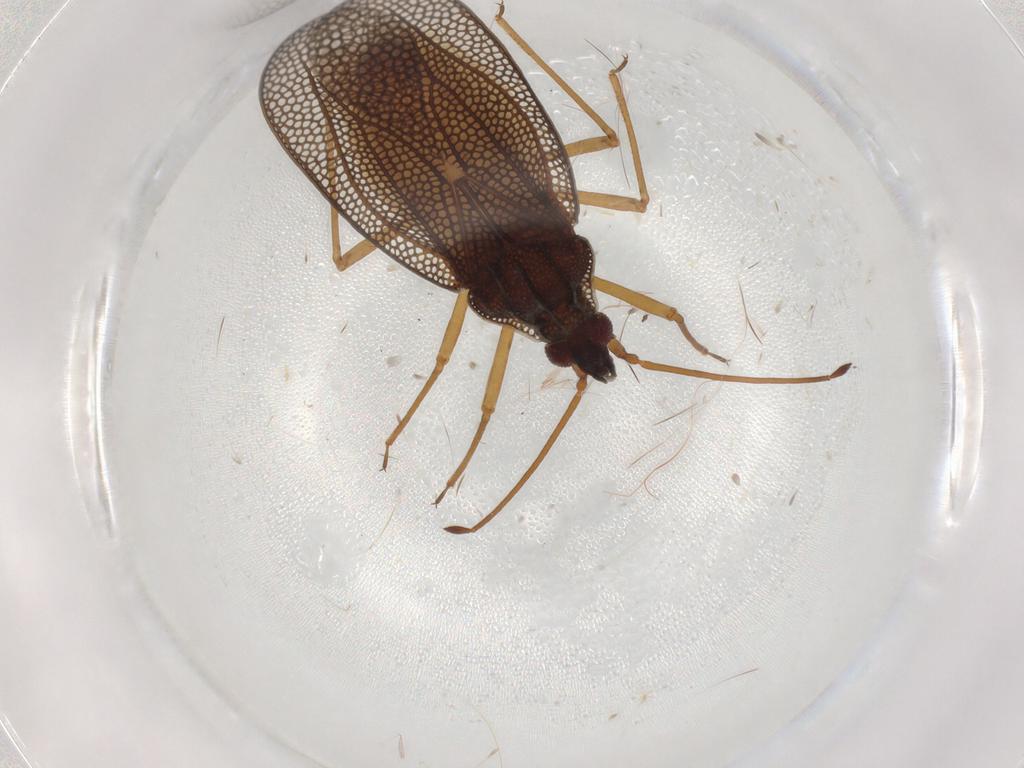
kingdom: Animalia
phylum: Arthropoda
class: Insecta
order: Hemiptera
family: Tingidae
